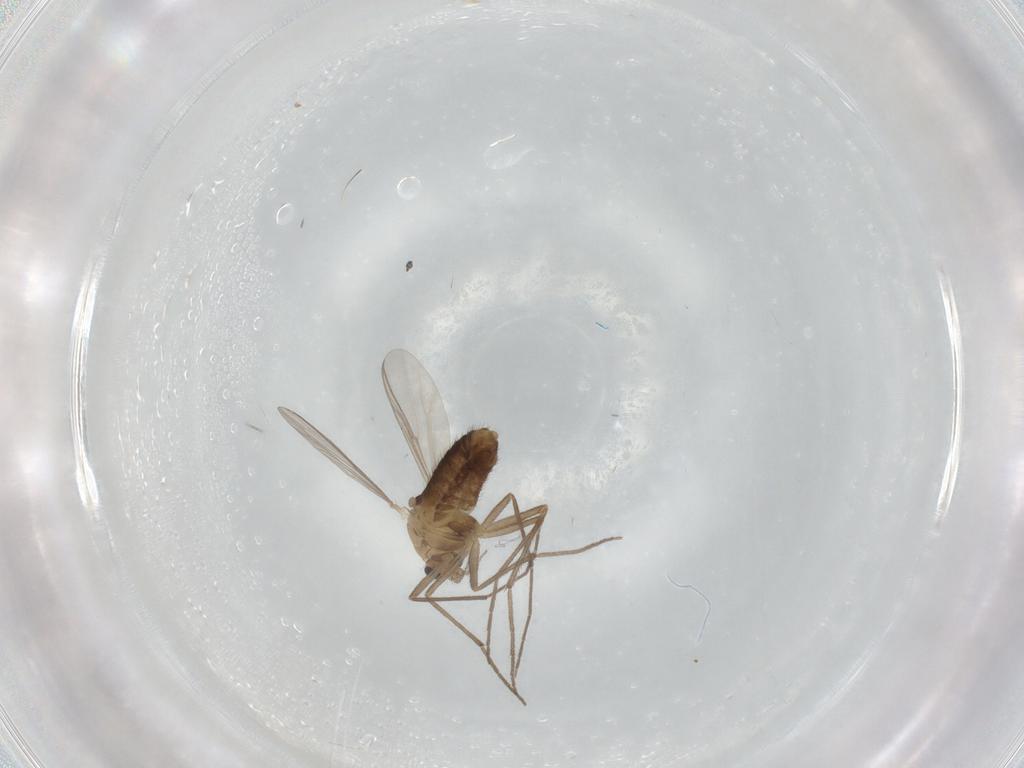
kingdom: Animalia
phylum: Arthropoda
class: Insecta
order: Diptera
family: Chironomidae
